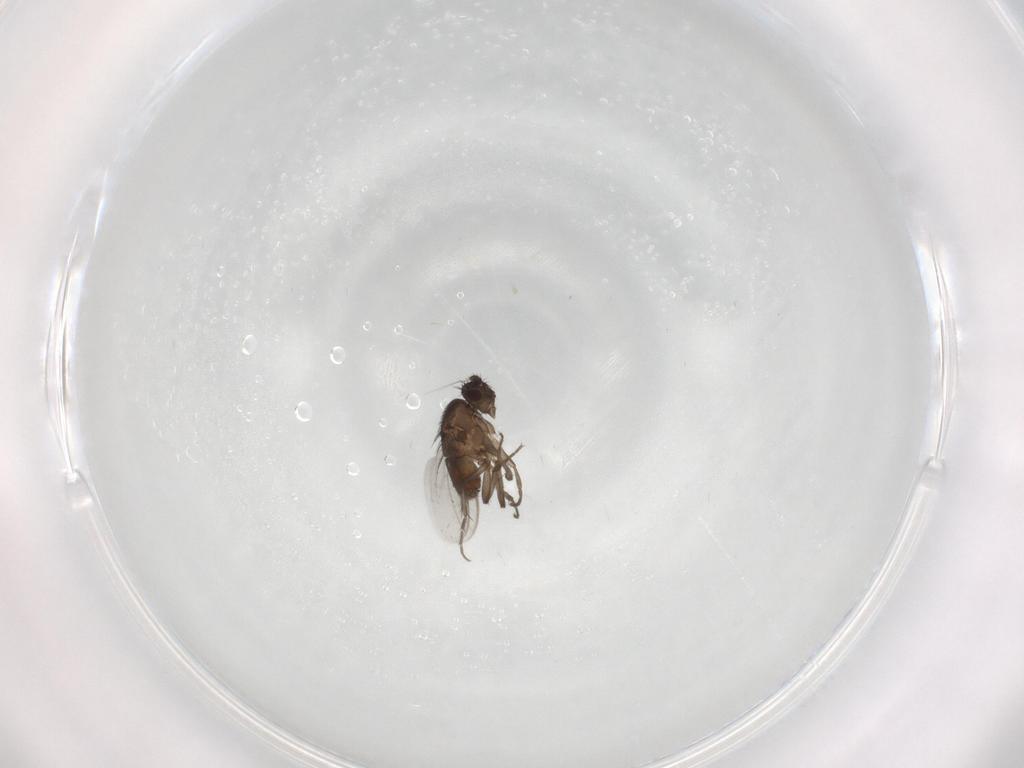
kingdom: Animalia
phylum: Arthropoda
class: Insecta
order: Diptera
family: Sphaeroceridae
